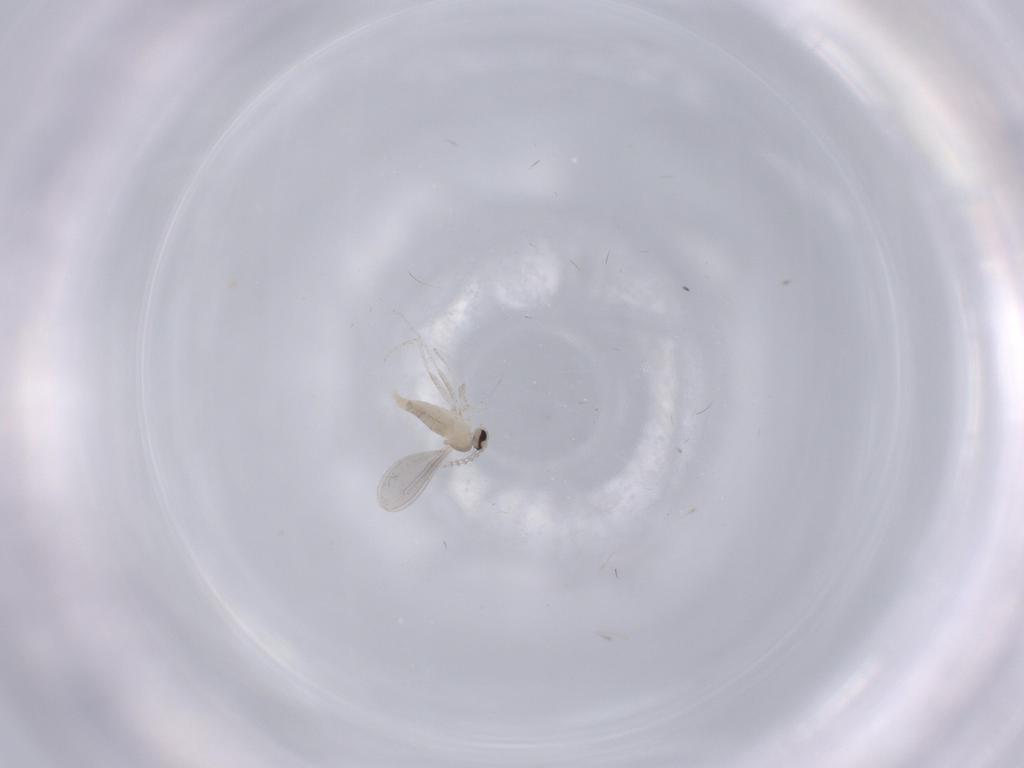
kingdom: Animalia
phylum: Arthropoda
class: Insecta
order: Diptera
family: Cecidomyiidae
